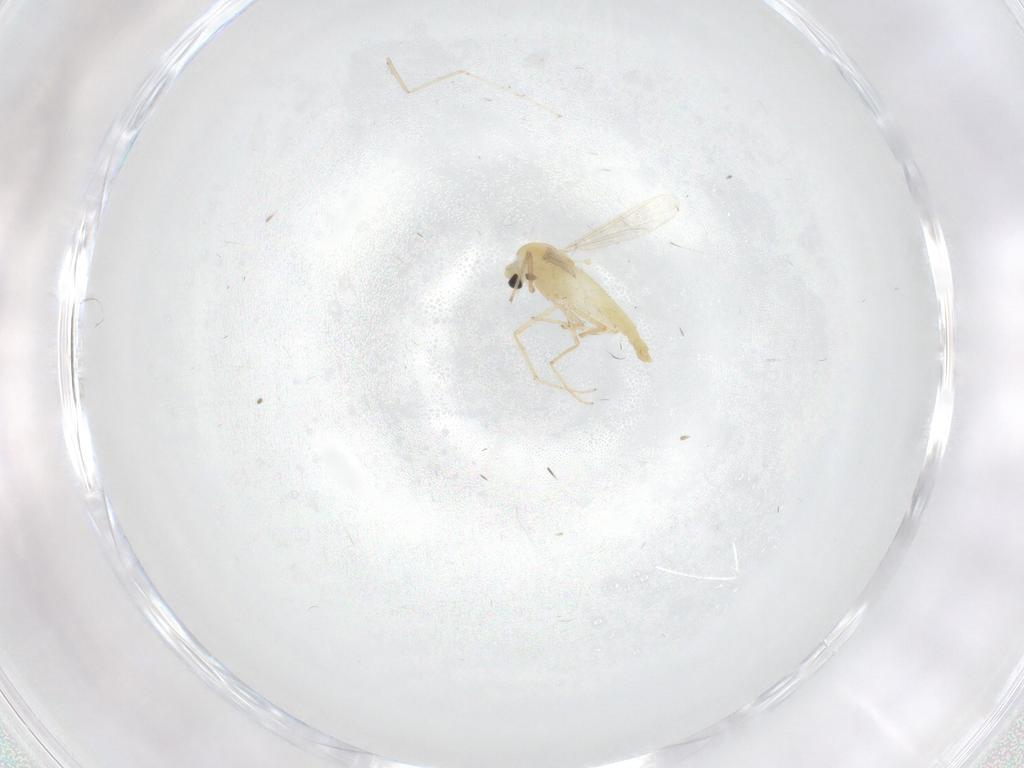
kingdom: Animalia
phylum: Arthropoda
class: Insecta
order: Diptera
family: Chironomidae
